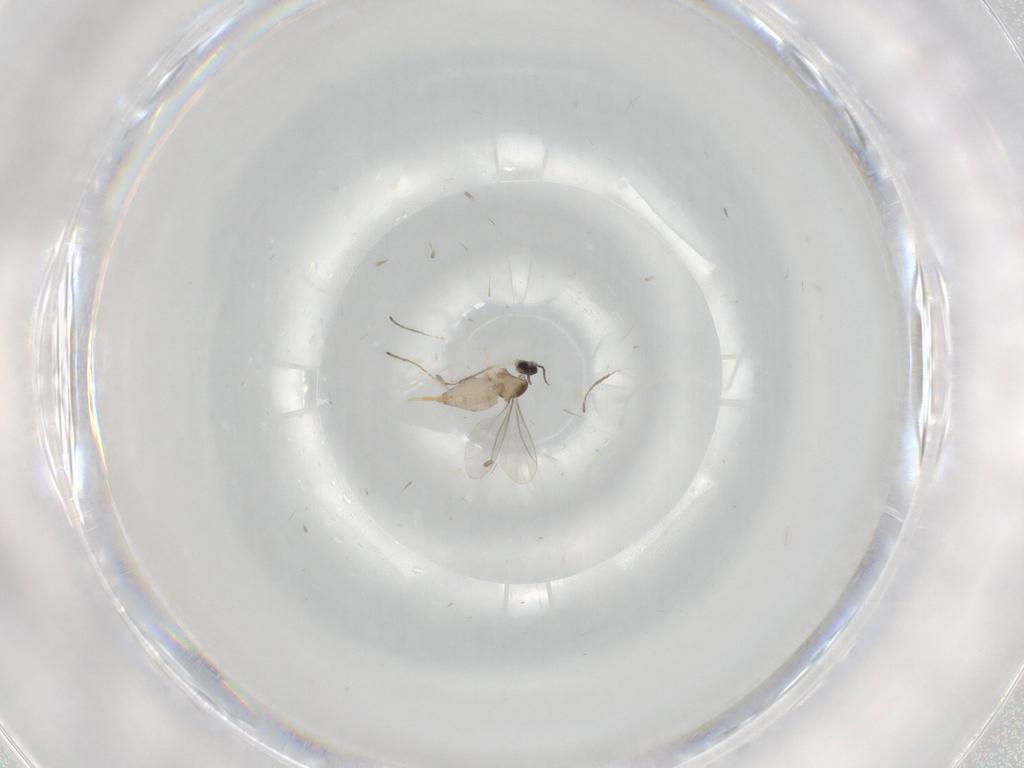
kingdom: Animalia
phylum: Arthropoda
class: Insecta
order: Diptera
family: Cecidomyiidae
